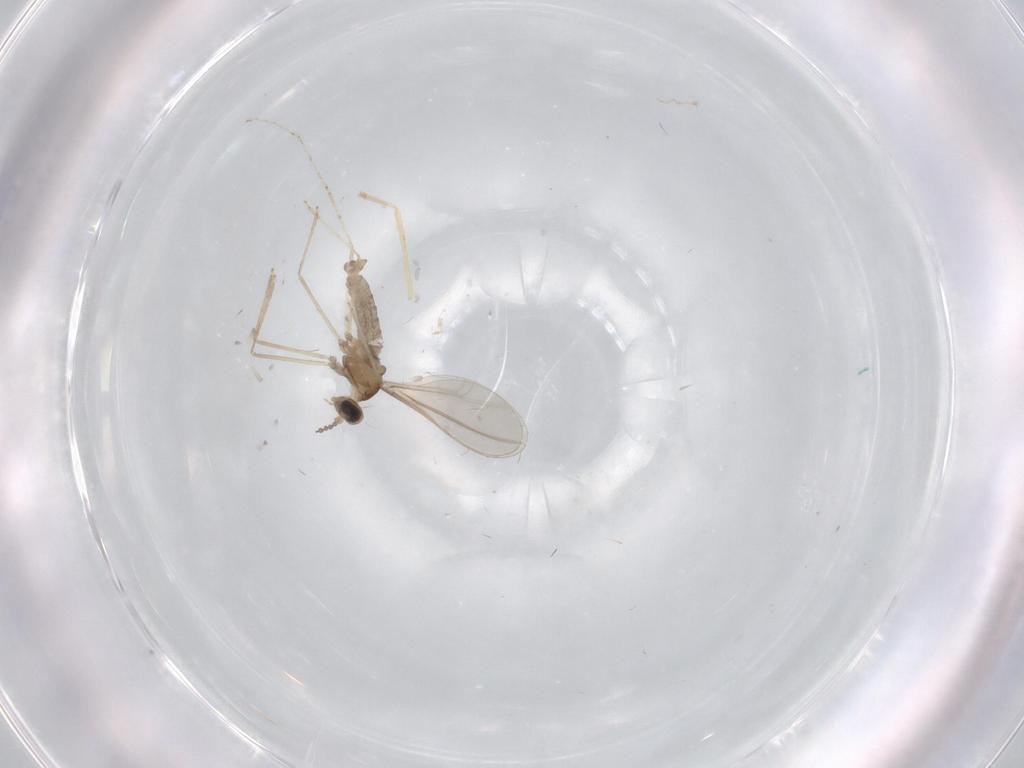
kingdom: Animalia
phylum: Arthropoda
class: Insecta
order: Diptera
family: Chironomidae
